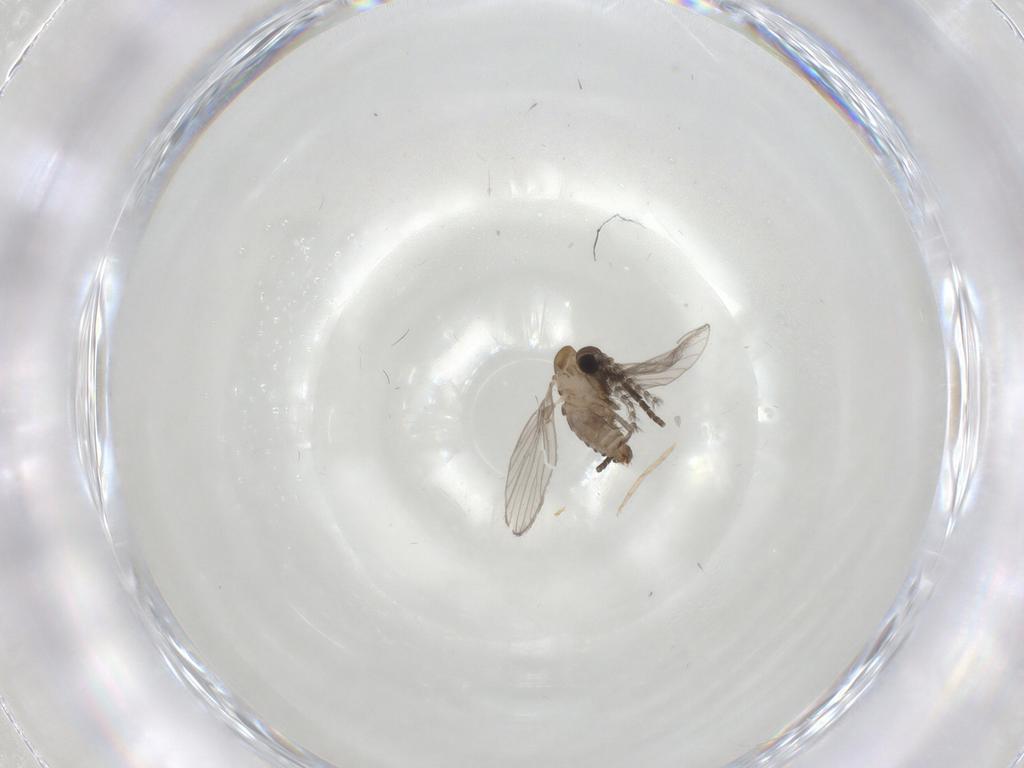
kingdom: Animalia
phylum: Arthropoda
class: Insecta
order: Diptera
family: Psychodidae
